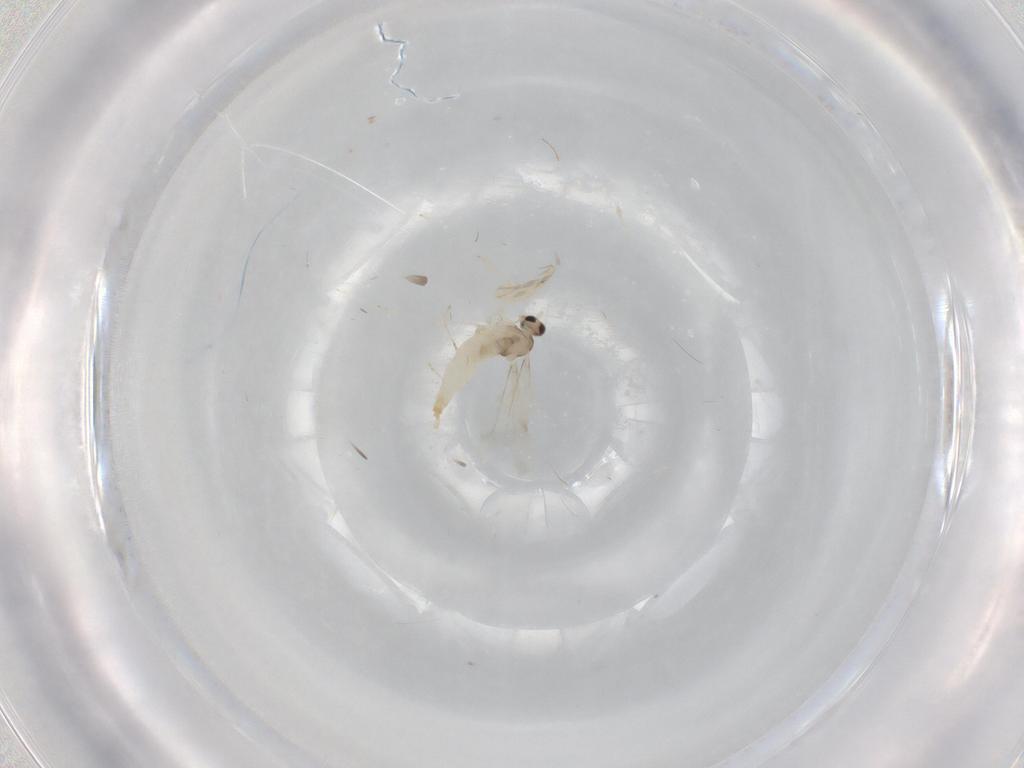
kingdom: Animalia
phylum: Arthropoda
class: Insecta
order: Diptera
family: Cecidomyiidae
